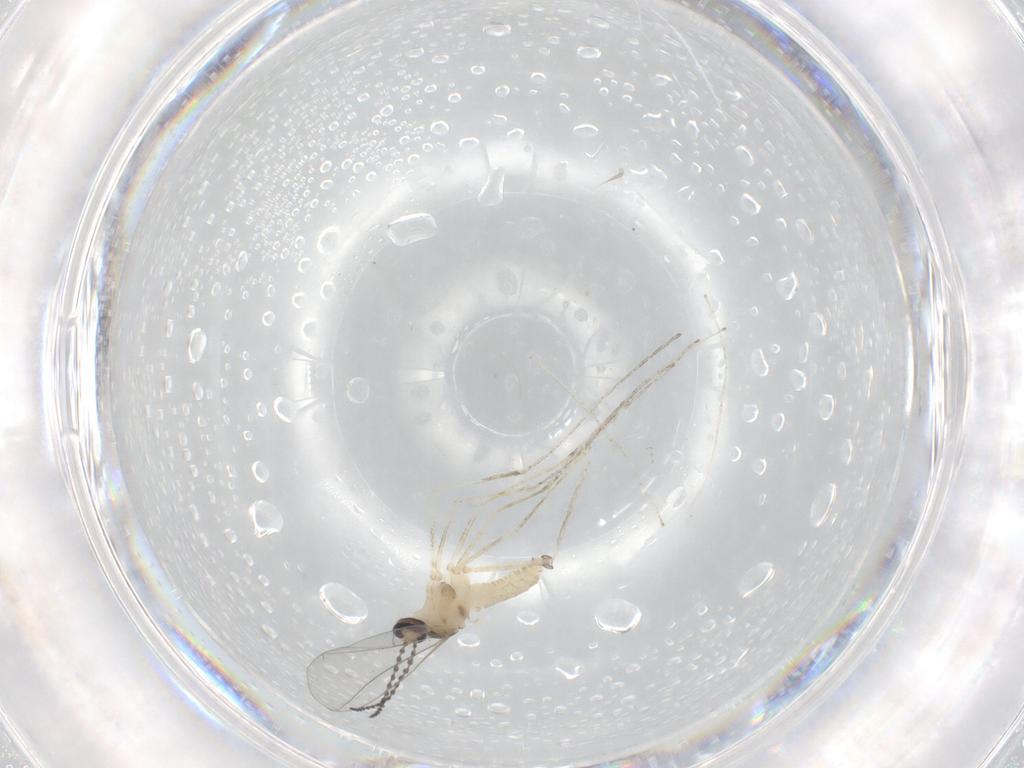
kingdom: Animalia
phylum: Arthropoda
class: Insecta
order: Diptera
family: Cecidomyiidae
